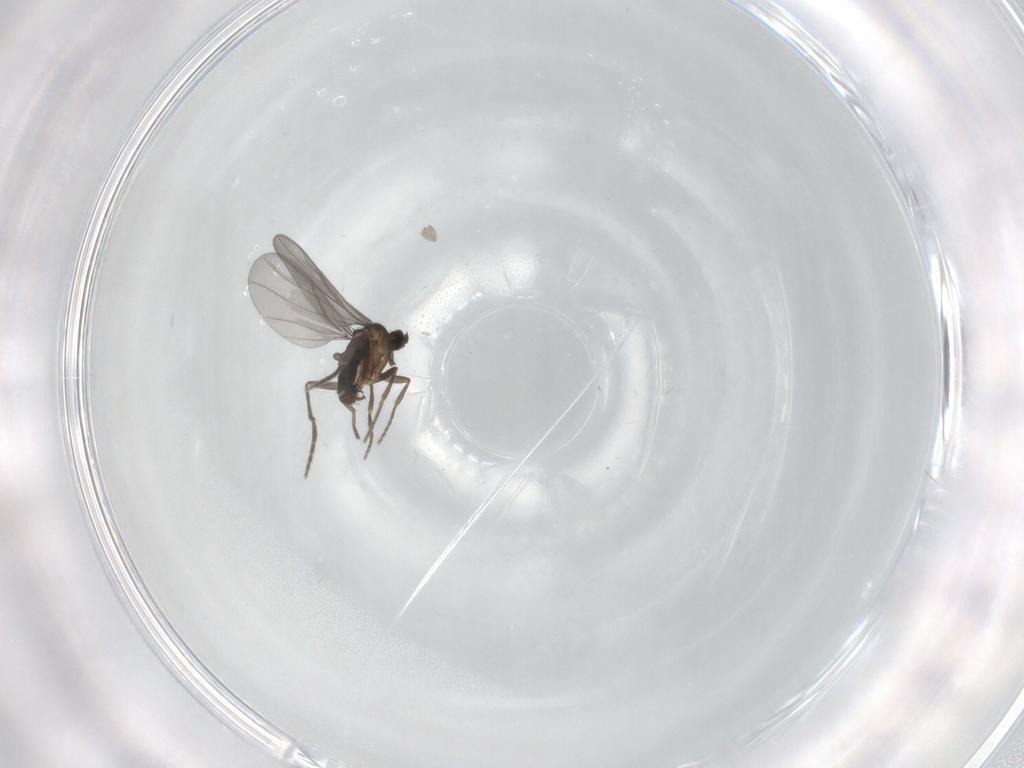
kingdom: Animalia
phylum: Arthropoda
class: Insecta
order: Diptera
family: Phoridae
